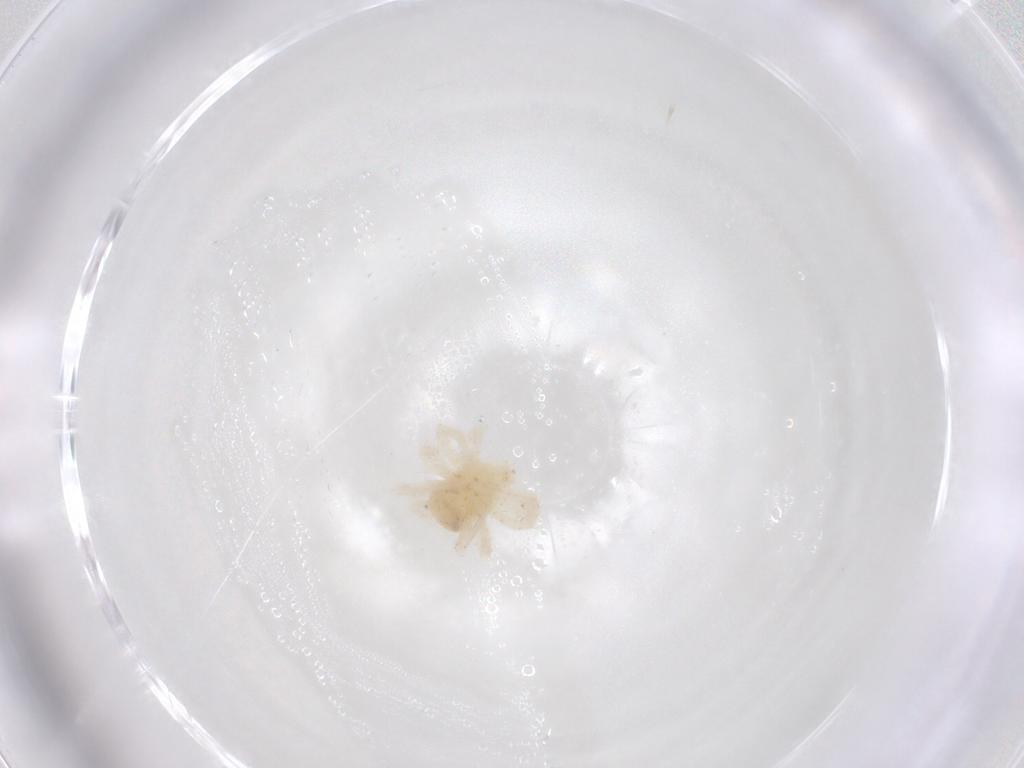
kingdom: Animalia
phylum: Arthropoda
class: Arachnida
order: Trombidiformes
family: Anystidae
